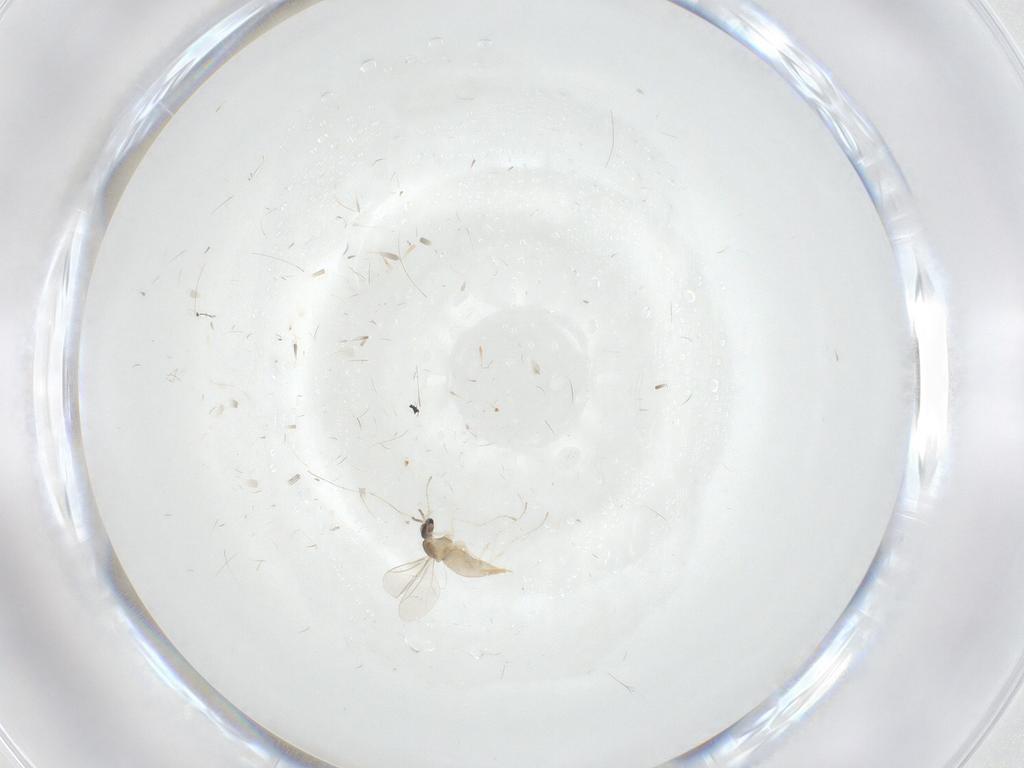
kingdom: Animalia
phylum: Arthropoda
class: Insecta
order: Diptera
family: Cecidomyiidae
